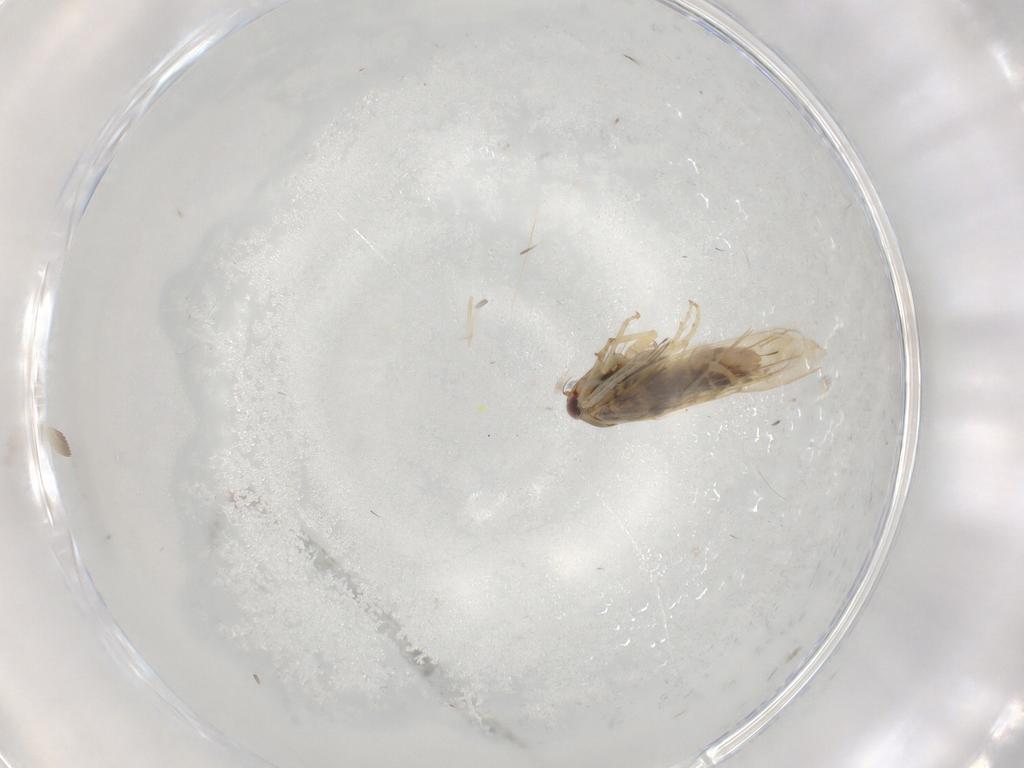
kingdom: Animalia
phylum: Arthropoda
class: Insecta
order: Hemiptera
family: Cicadellidae
